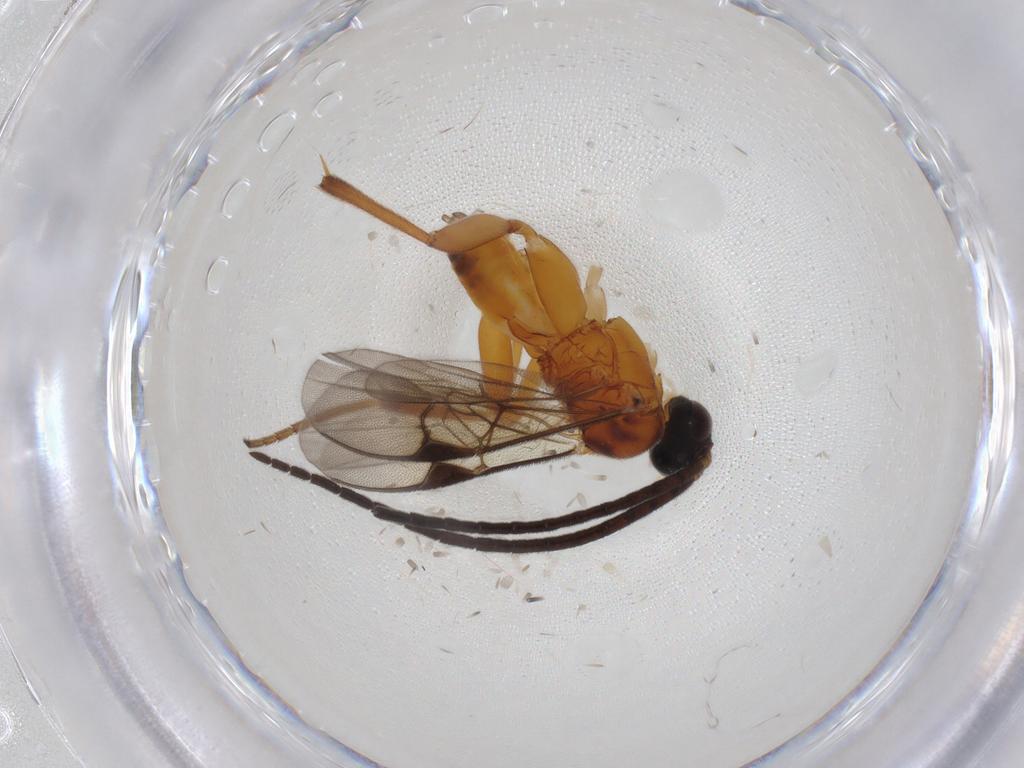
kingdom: Animalia
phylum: Arthropoda
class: Insecta
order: Hymenoptera
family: Braconidae
